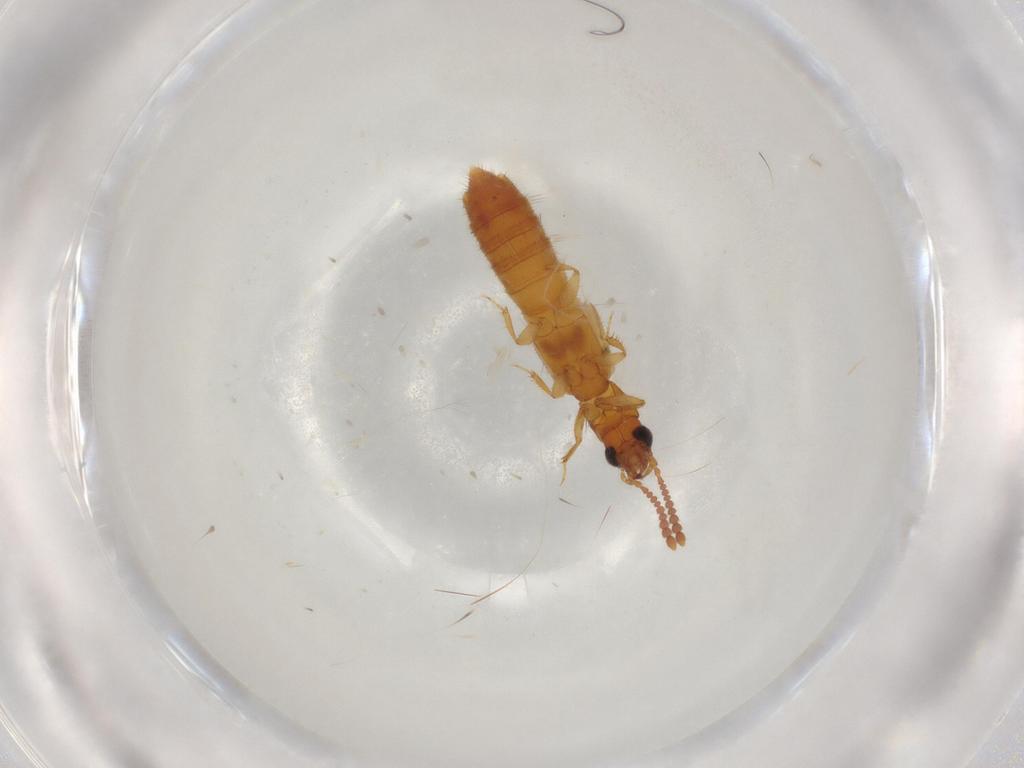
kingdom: Animalia
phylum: Arthropoda
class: Insecta
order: Coleoptera
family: Staphylinidae
